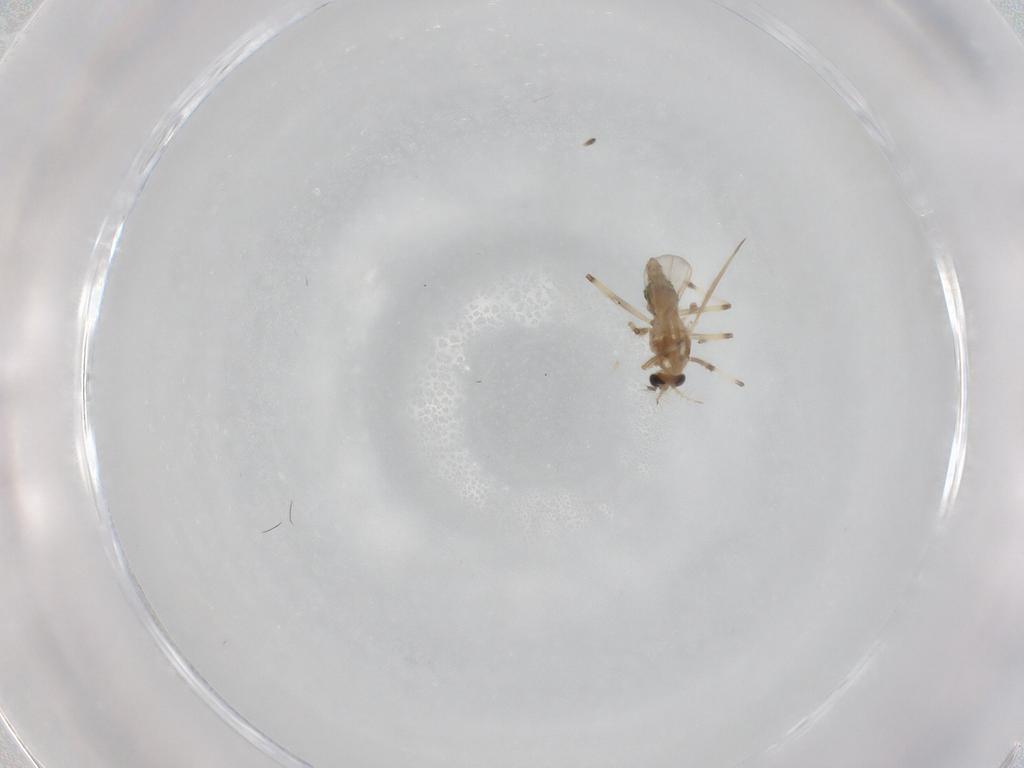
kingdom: Animalia
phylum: Arthropoda
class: Insecta
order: Diptera
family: Chironomidae
